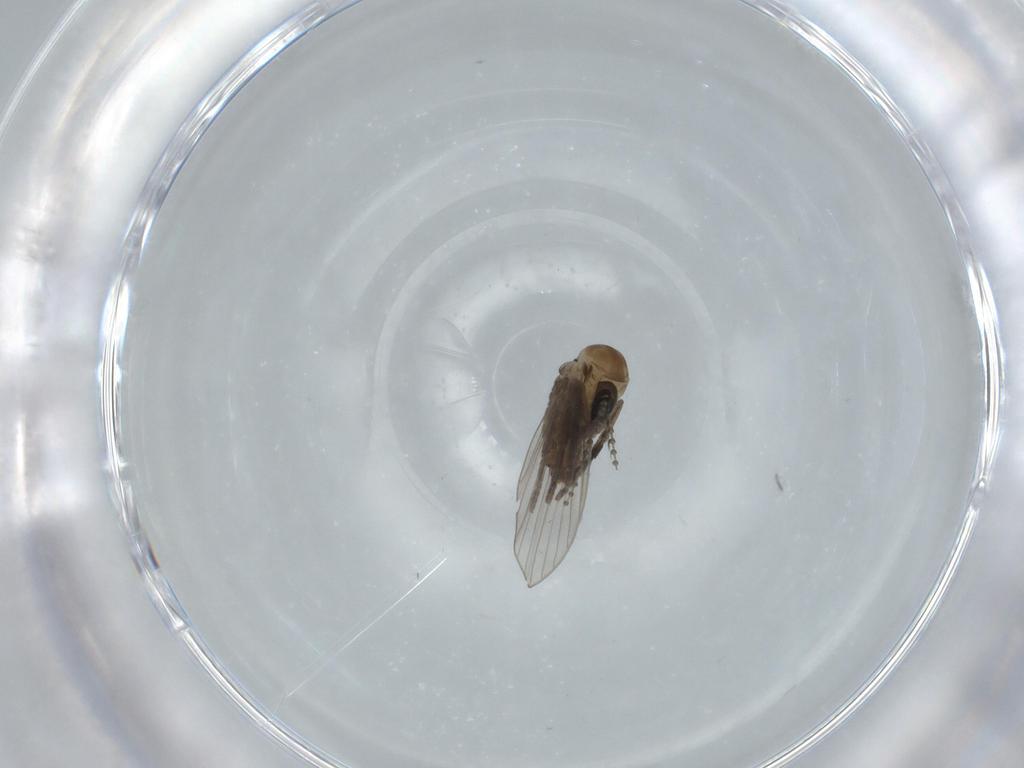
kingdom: Animalia
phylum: Arthropoda
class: Insecta
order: Diptera
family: Psychodidae
